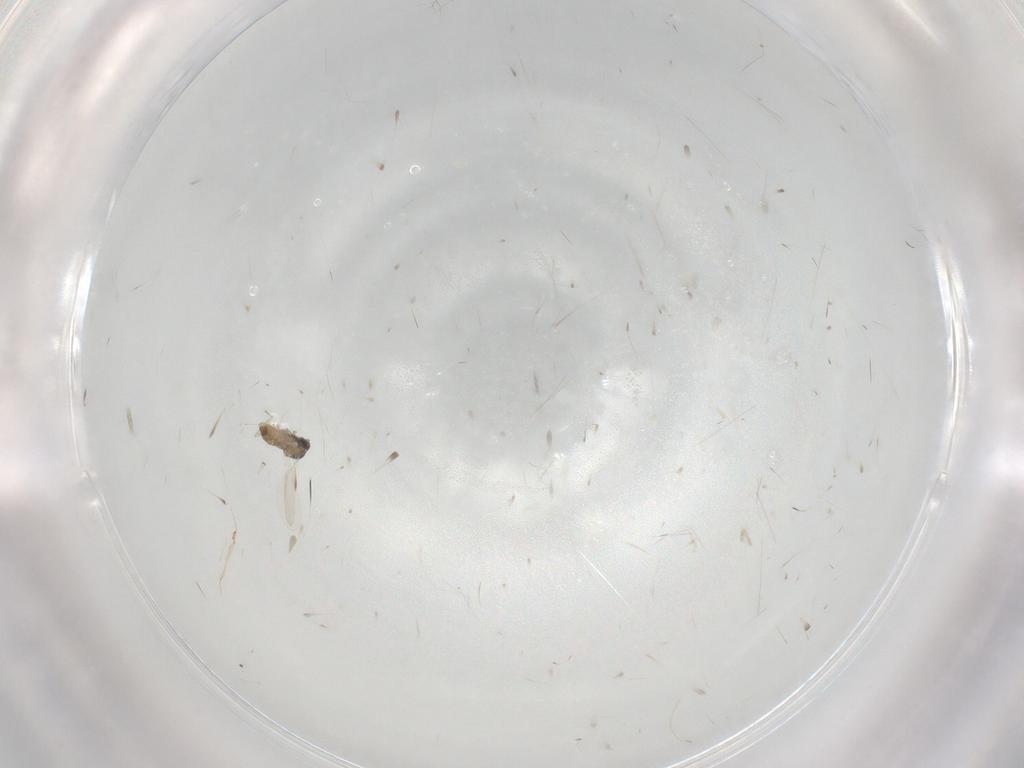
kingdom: Animalia
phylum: Arthropoda
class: Insecta
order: Diptera
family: Cecidomyiidae
